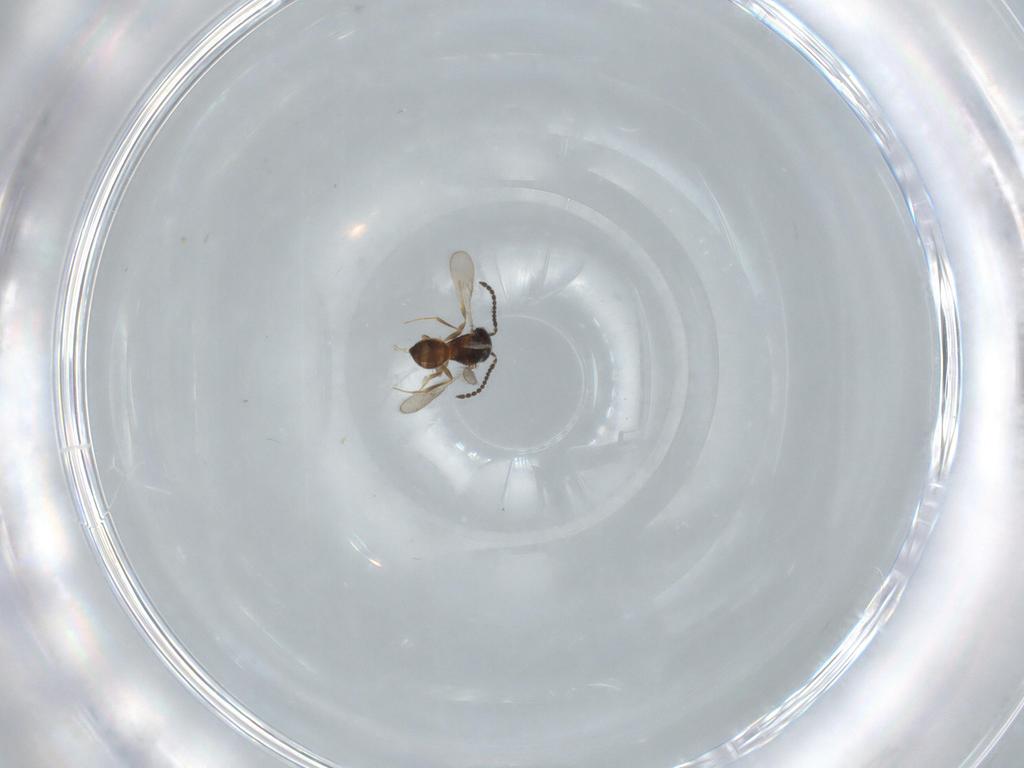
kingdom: Animalia
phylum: Arthropoda
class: Insecta
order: Hymenoptera
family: Scelionidae
